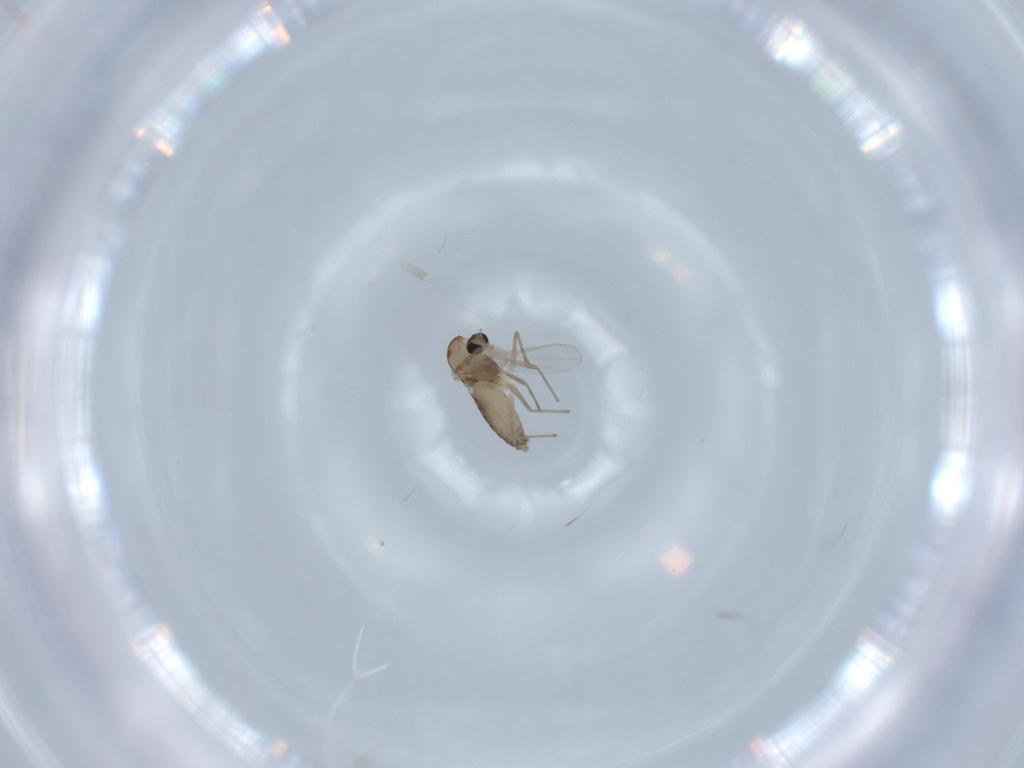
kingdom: Animalia
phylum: Arthropoda
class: Insecta
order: Diptera
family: Chironomidae
